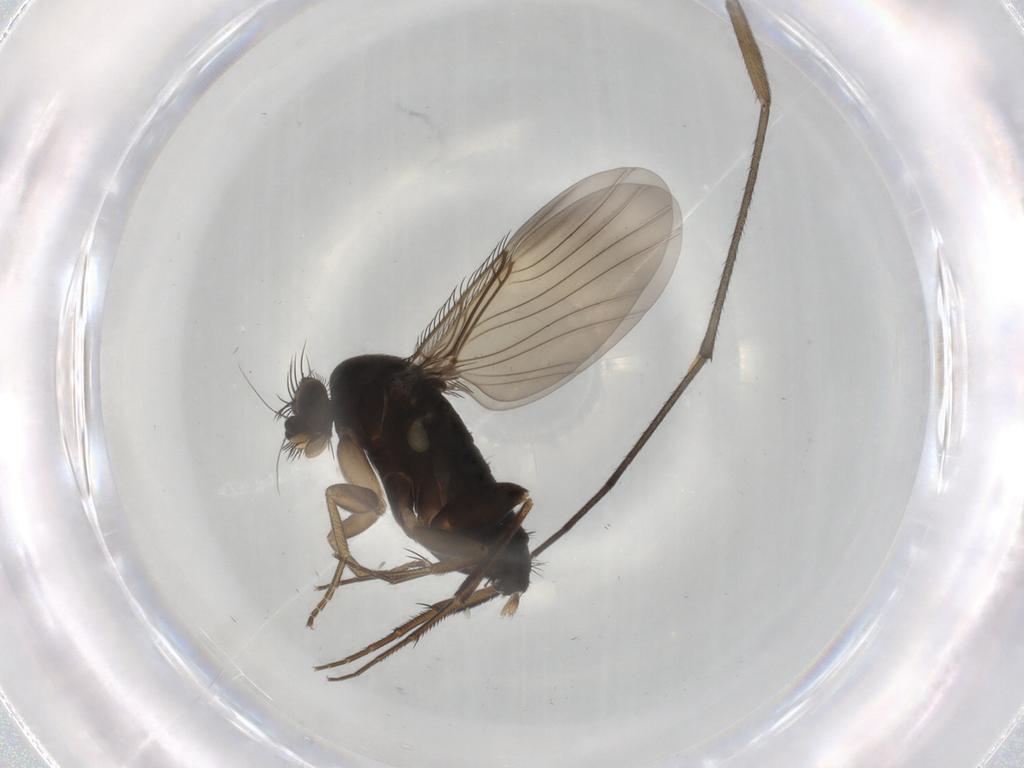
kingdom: Animalia
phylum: Arthropoda
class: Insecta
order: Diptera
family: Phoridae
